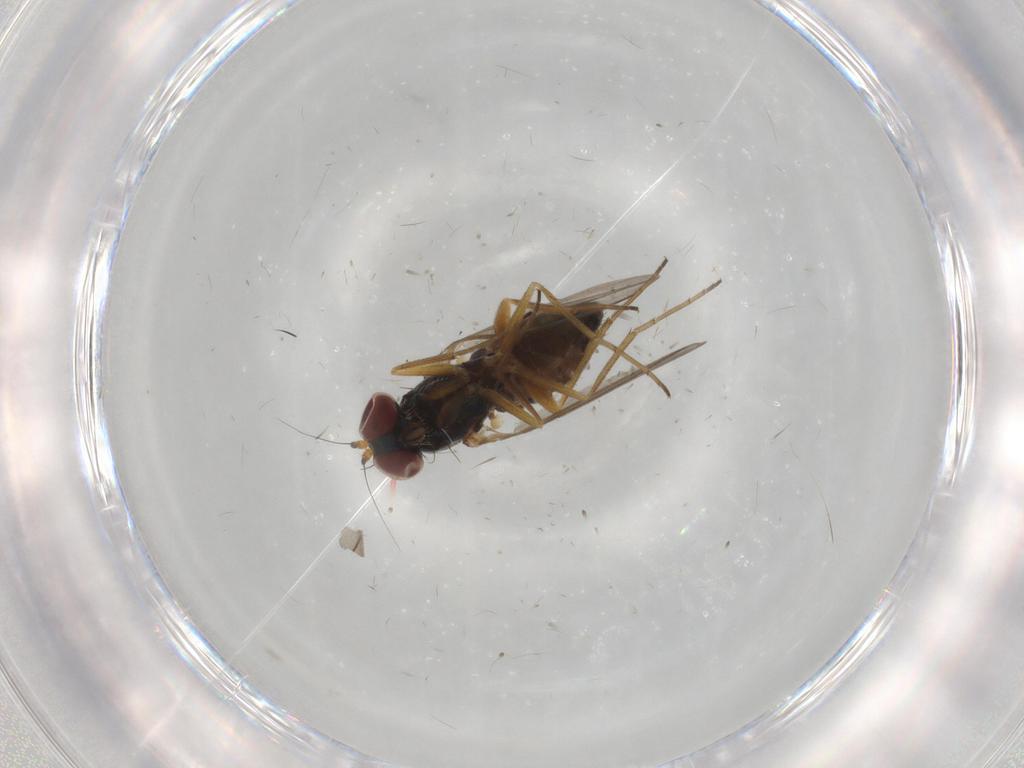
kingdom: Animalia
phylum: Arthropoda
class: Insecta
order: Diptera
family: Dolichopodidae
